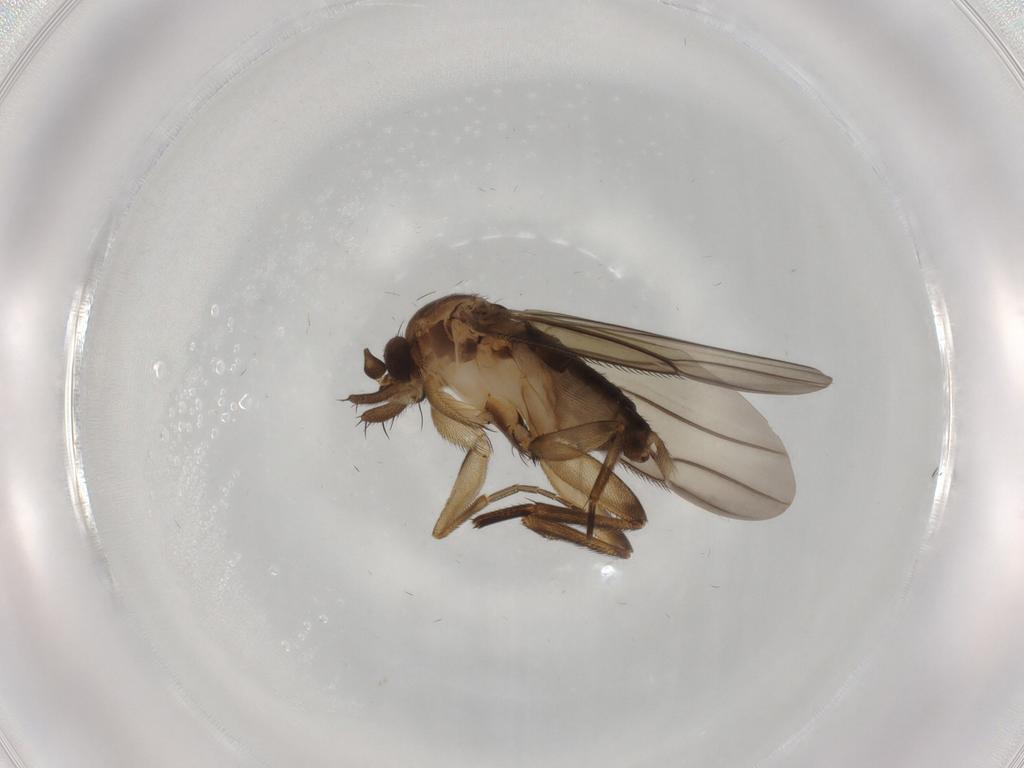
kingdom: Animalia
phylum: Arthropoda
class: Insecta
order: Diptera
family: Phoridae
